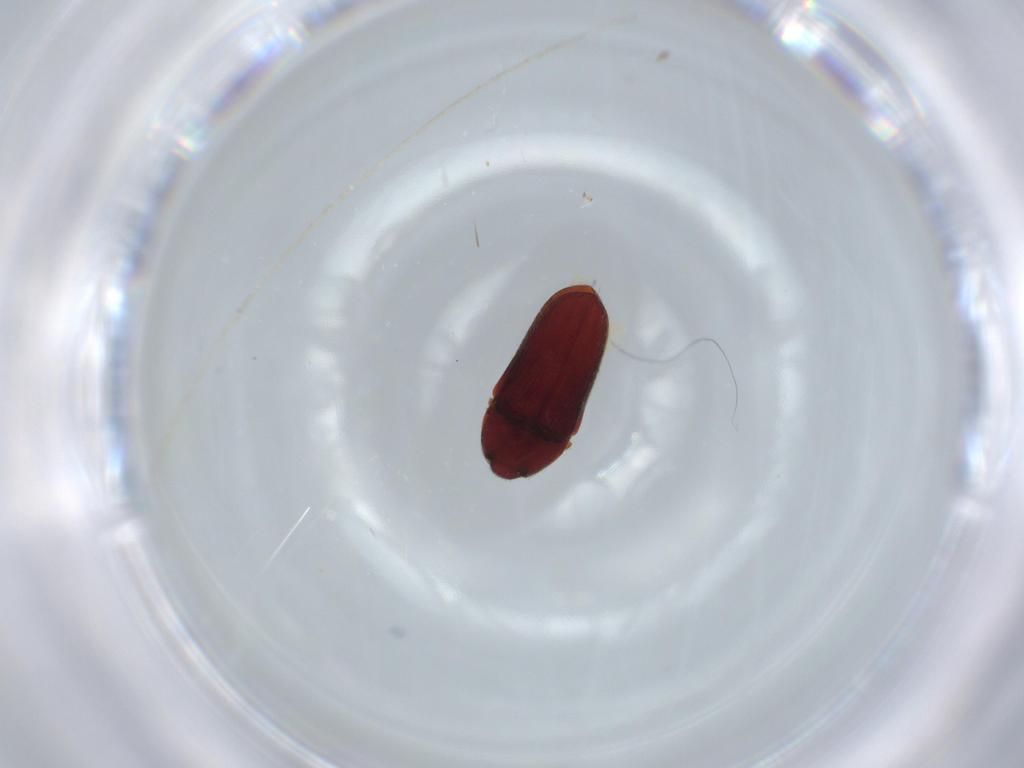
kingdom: Animalia
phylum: Arthropoda
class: Insecta
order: Coleoptera
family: Throscidae
